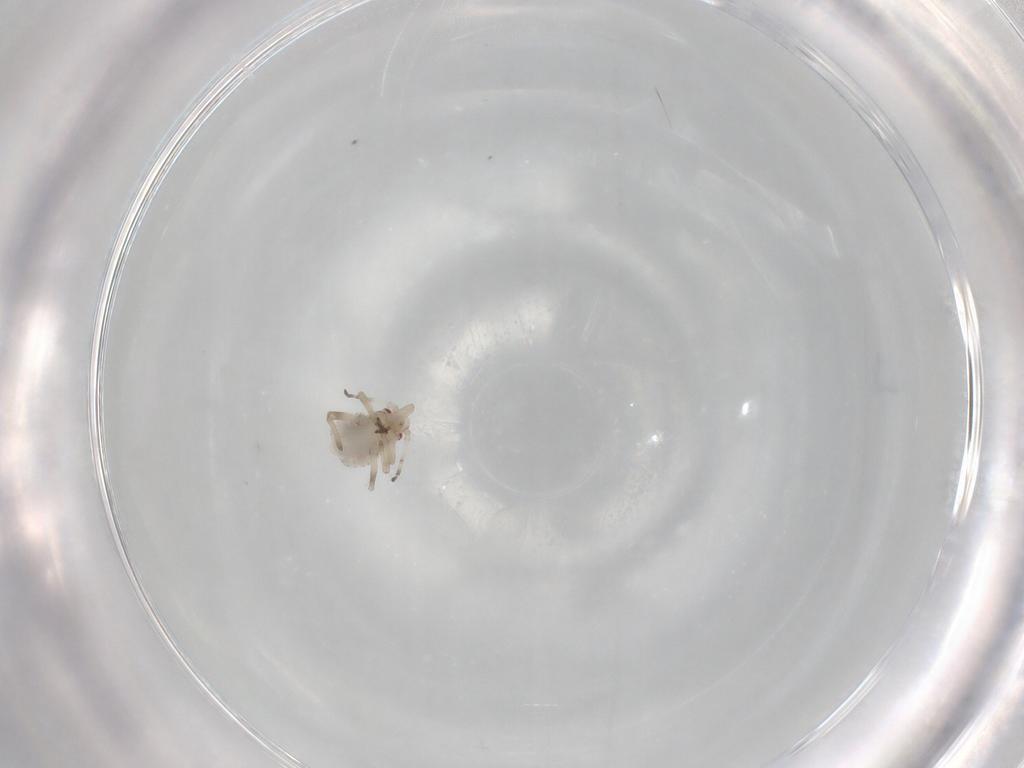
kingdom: Animalia
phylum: Arthropoda
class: Insecta
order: Hemiptera
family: Aphididae
